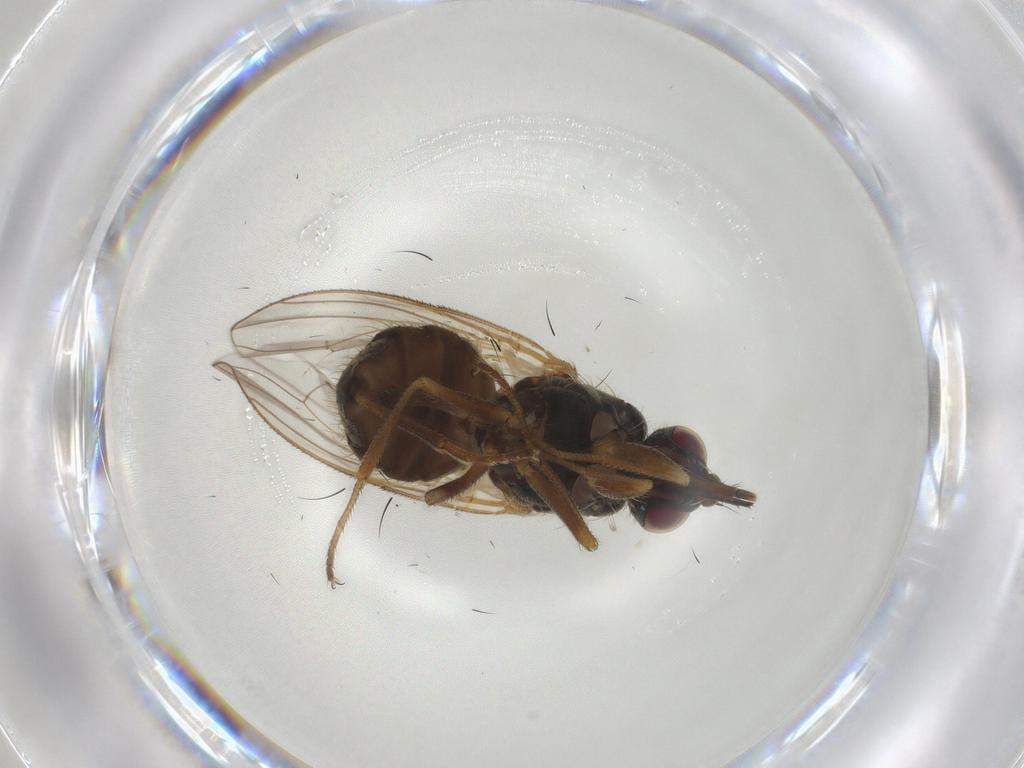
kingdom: Animalia
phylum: Arthropoda
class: Insecta
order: Diptera
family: Muscidae
